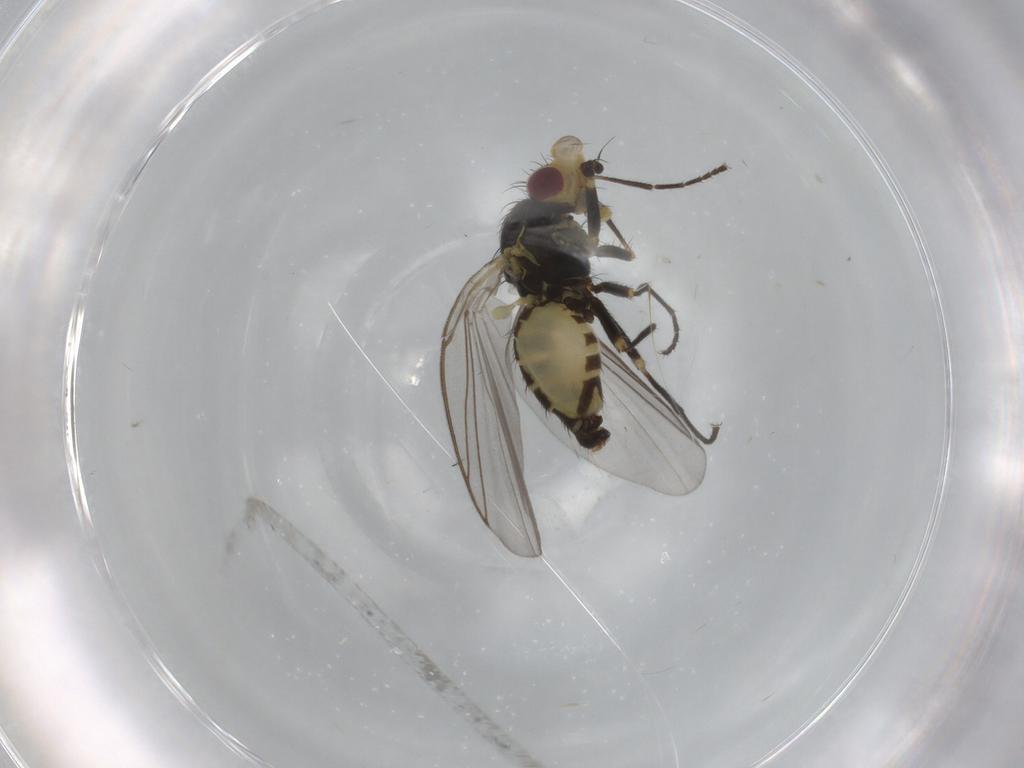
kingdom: Animalia
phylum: Arthropoda
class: Insecta
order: Diptera
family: Agromyzidae
